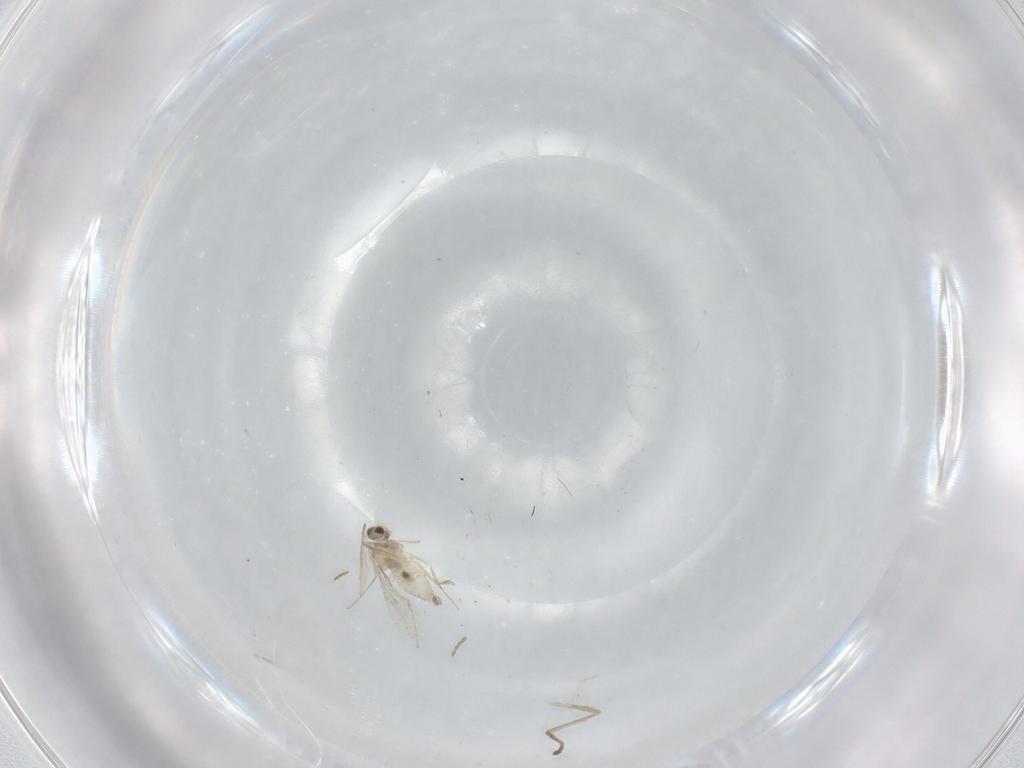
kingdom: Animalia
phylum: Arthropoda
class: Insecta
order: Diptera
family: Cecidomyiidae
